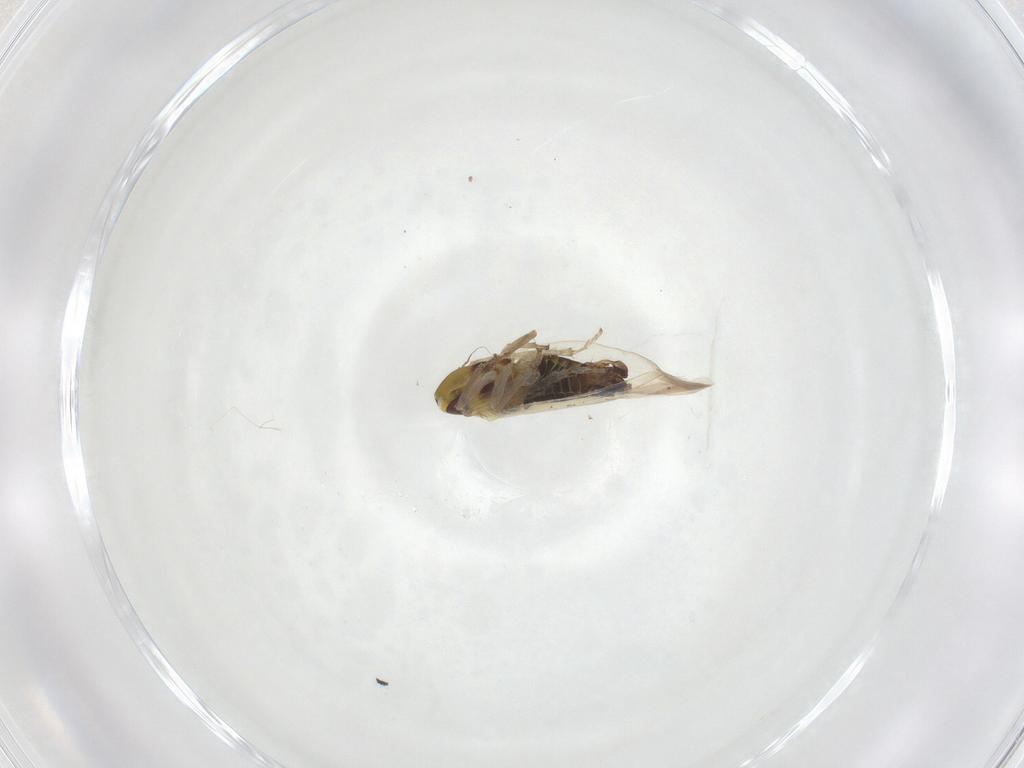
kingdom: Animalia
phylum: Arthropoda
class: Insecta
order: Hemiptera
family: Cicadellidae
